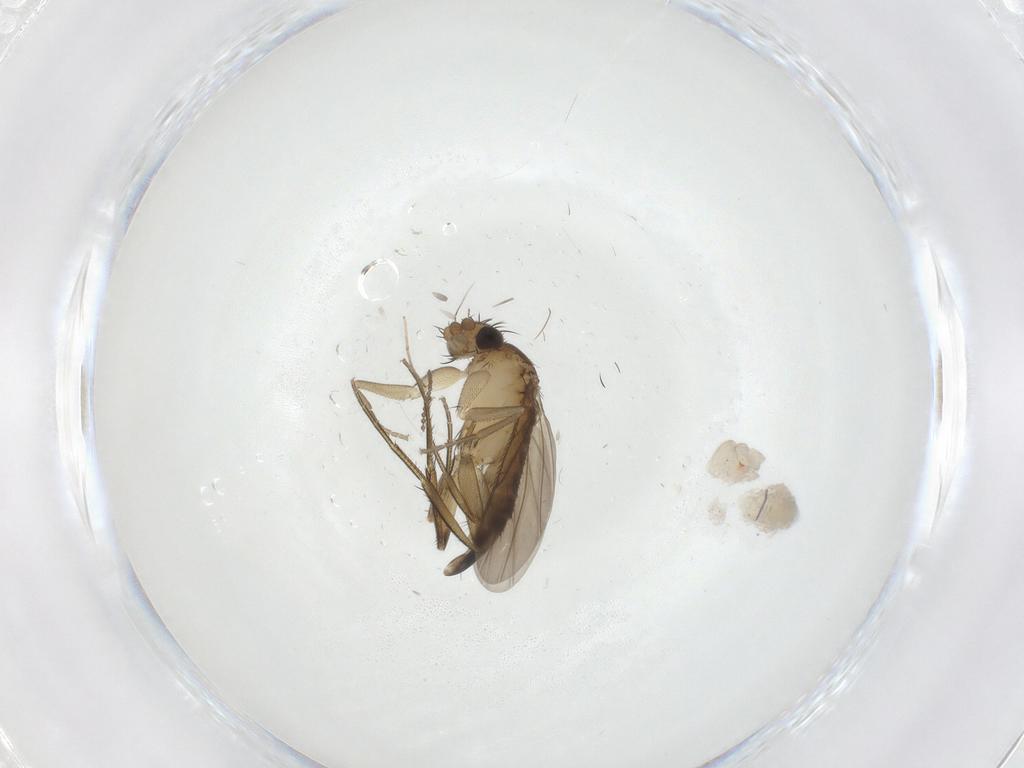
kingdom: Animalia
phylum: Arthropoda
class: Insecta
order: Diptera
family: Phoridae
